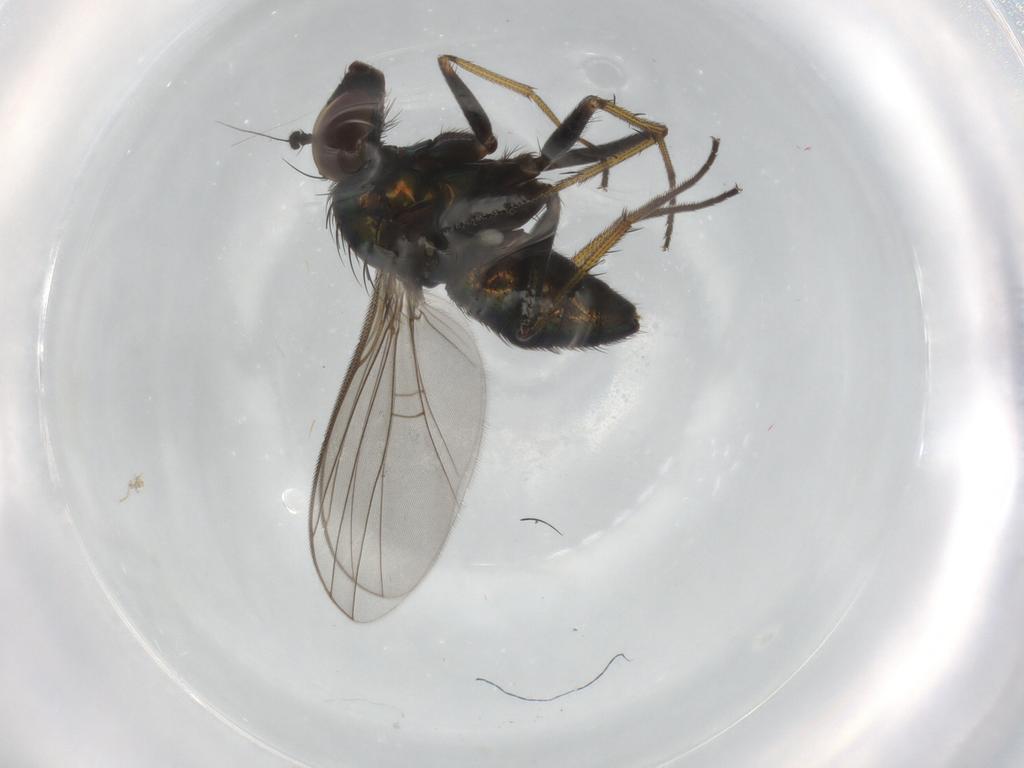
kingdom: Animalia
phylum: Arthropoda
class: Insecta
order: Diptera
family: Dolichopodidae
